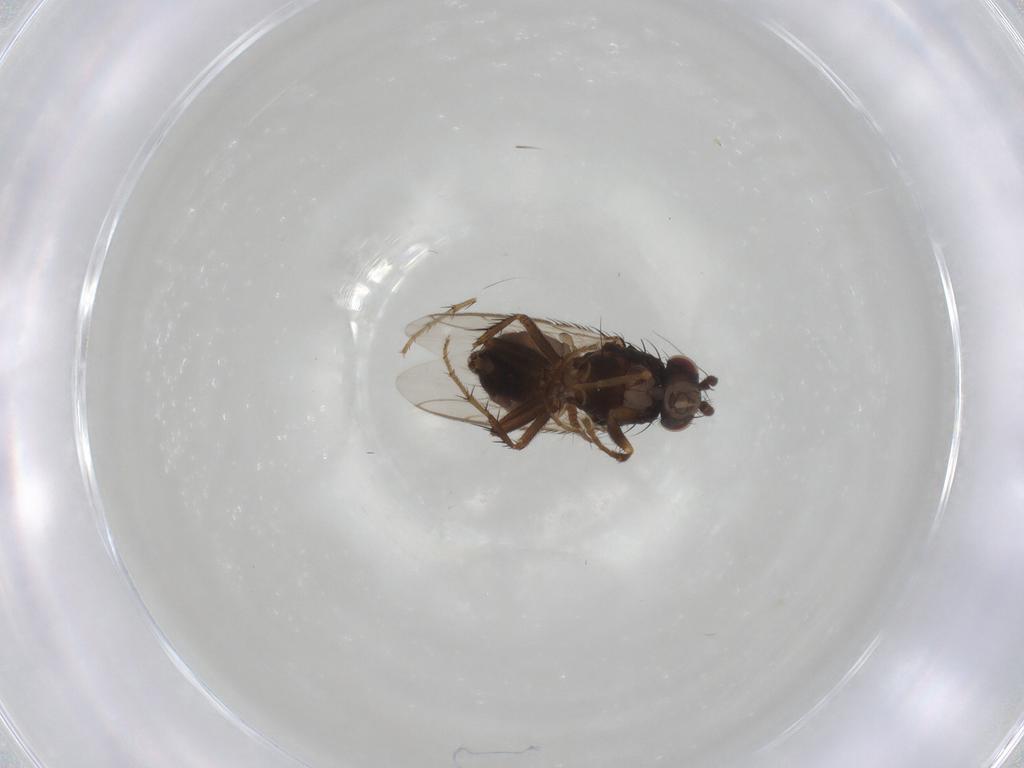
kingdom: Animalia
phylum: Arthropoda
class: Insecta
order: Diptera
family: Sphaeroceridae
